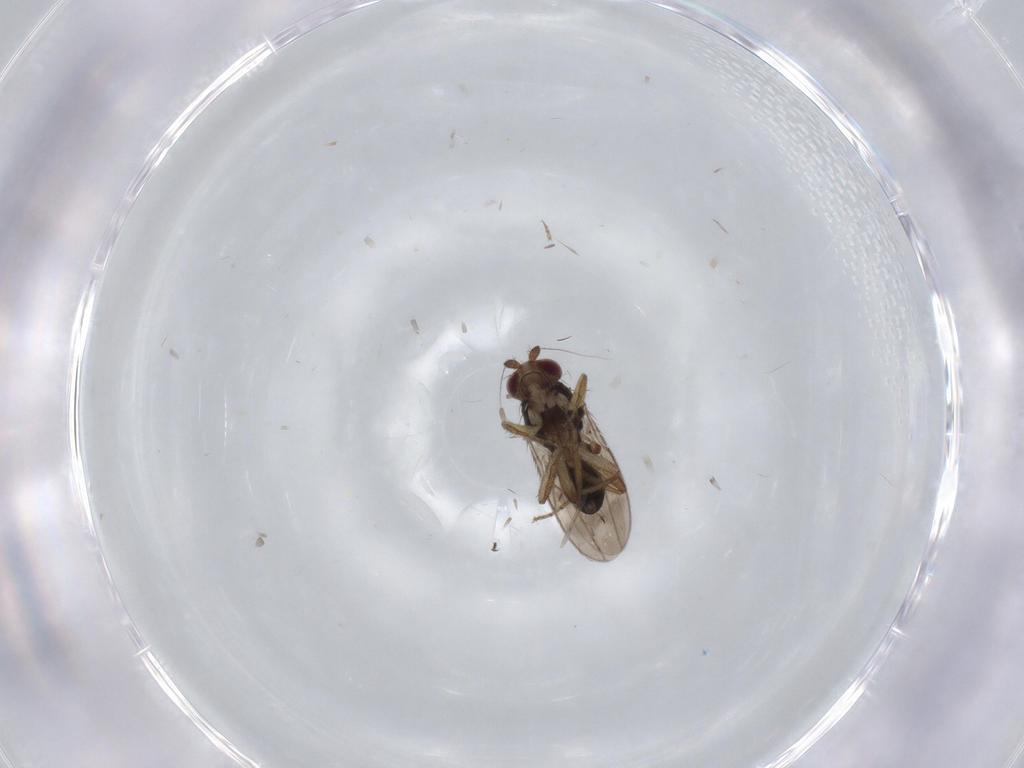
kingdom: Animalia
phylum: Arthropoda
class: Insecta
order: Diptera
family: Sphaeroceridae
